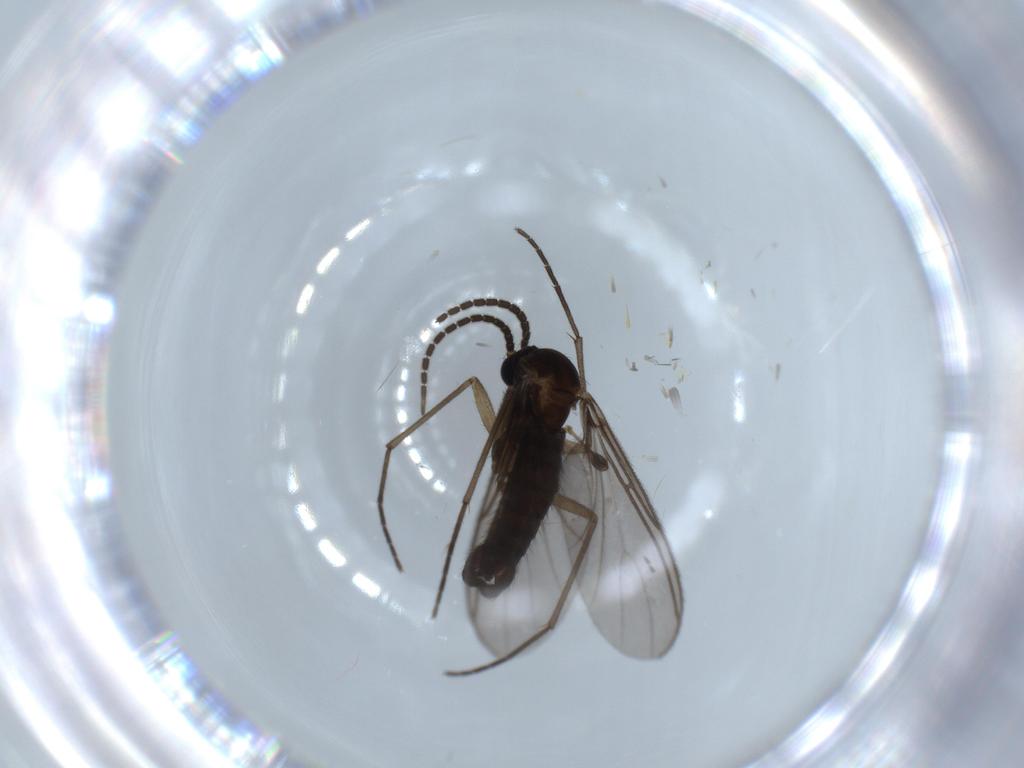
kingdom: Animalia
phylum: Arthropoda
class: Insecta
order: Diptera
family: Sciaridae
